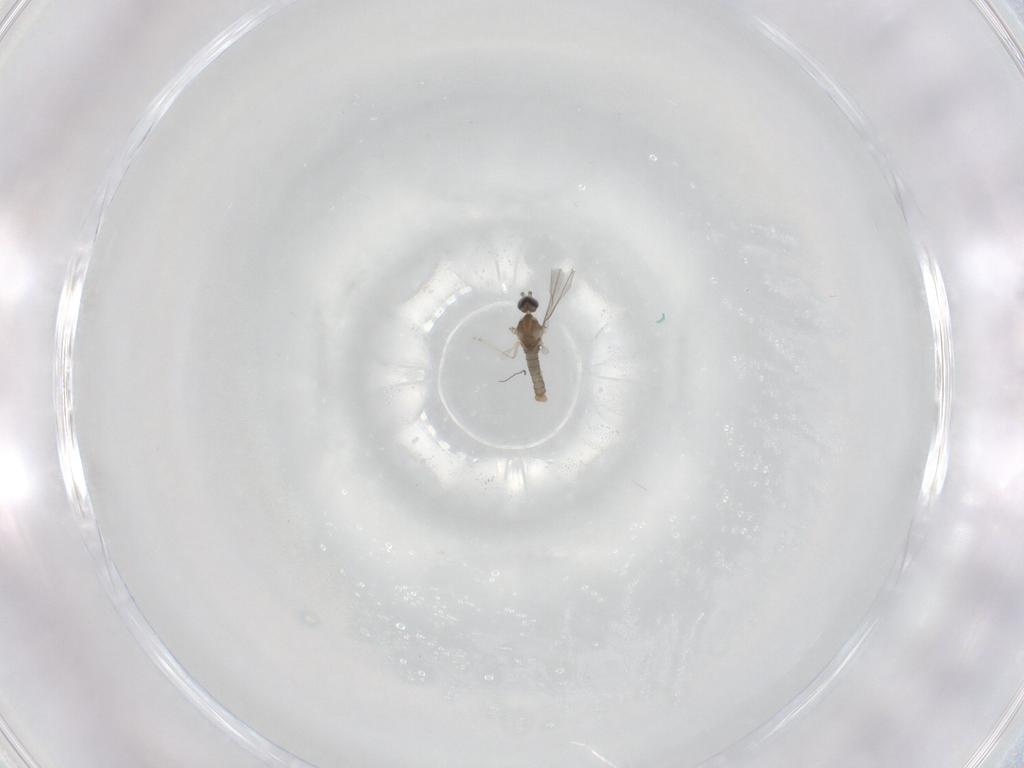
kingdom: Animalia
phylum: Arthropoda
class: Insecta
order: Diptera
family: Cecidomyiidae
